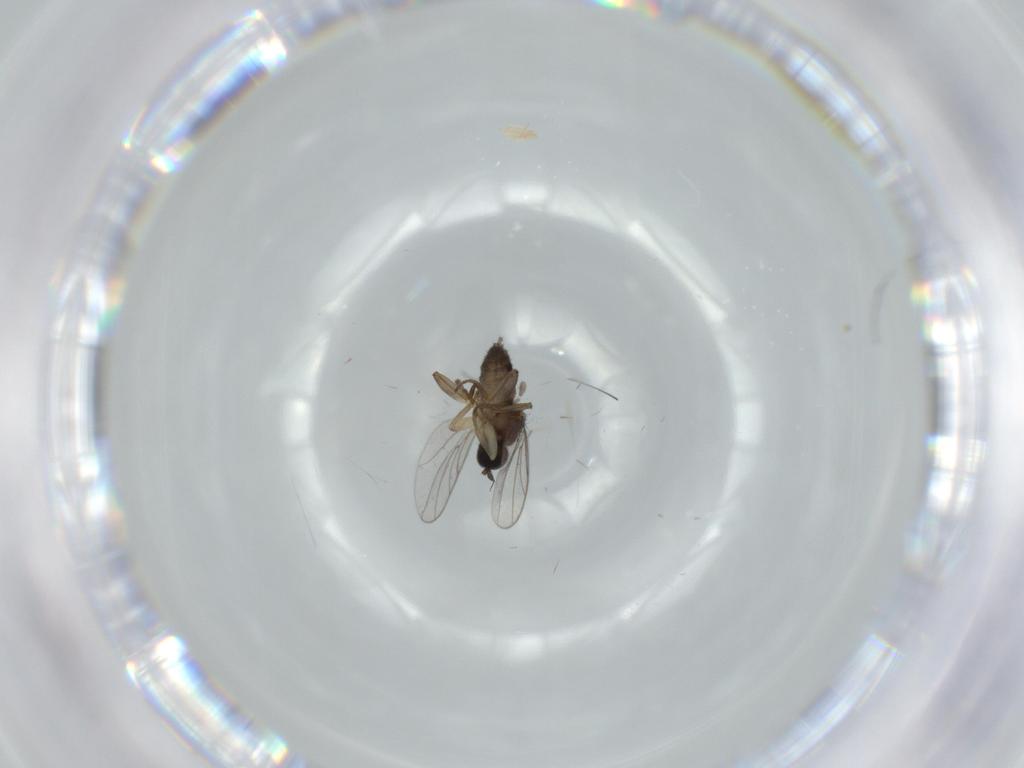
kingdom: Animalia
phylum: Arthropoda
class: Insecta
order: Diptera
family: Hybotidae
